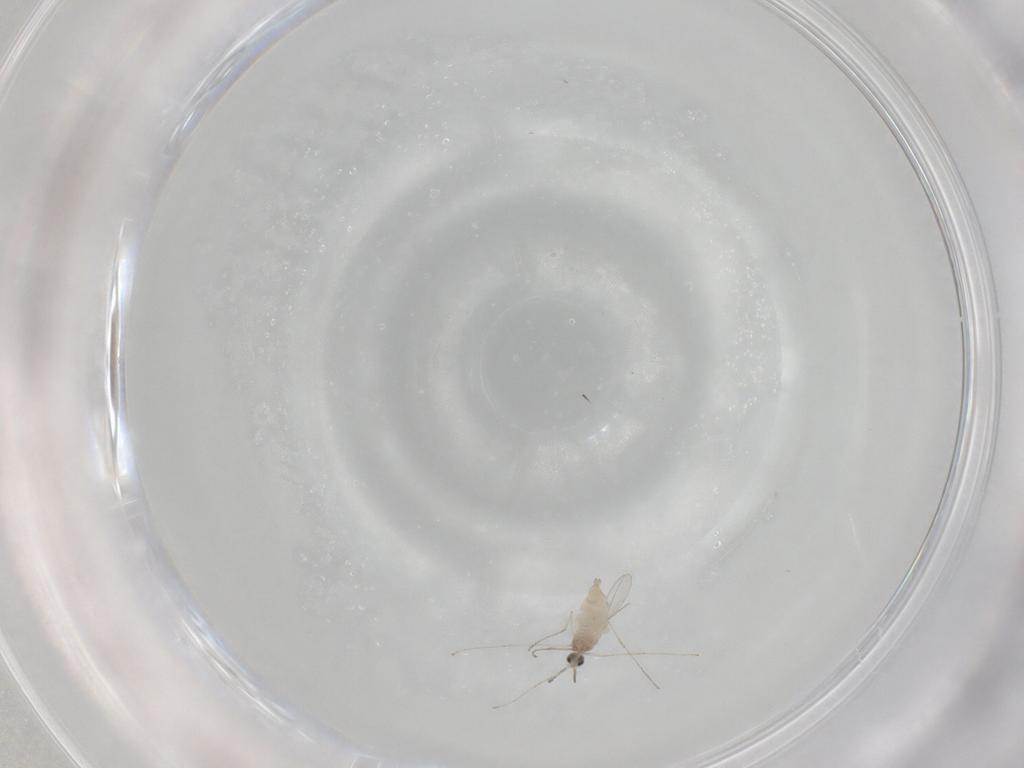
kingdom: Animalia
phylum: Arthropoda
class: Insecta
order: Diptera
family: Cecidomyiidae
